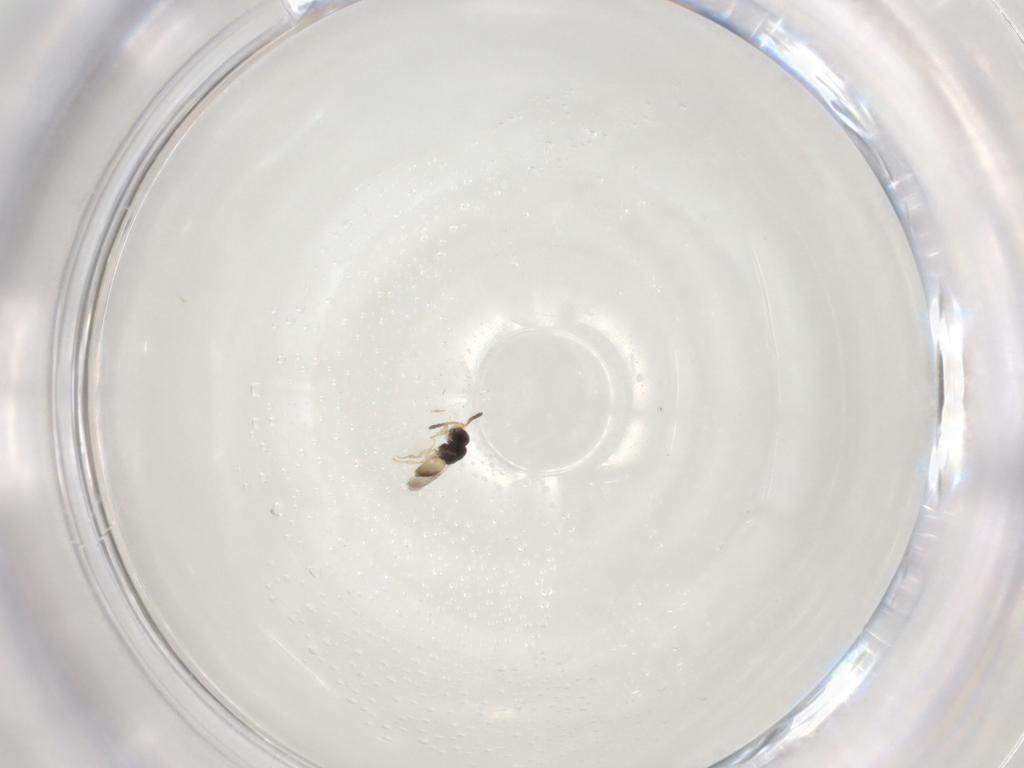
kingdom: Animalia
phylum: Arthropoda
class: Insecta
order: Hymenoptera
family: Ceraphronidae
